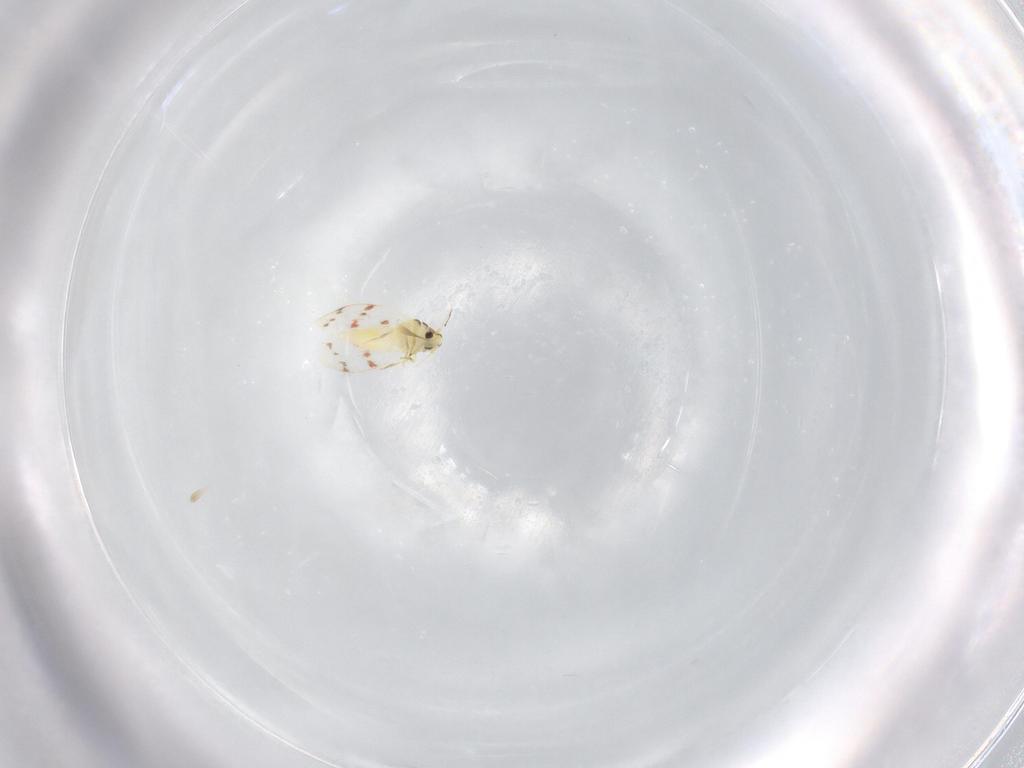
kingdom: Animalia
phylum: Arthropoda
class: Insecta
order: Hemiptera
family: Aleyrodidae
